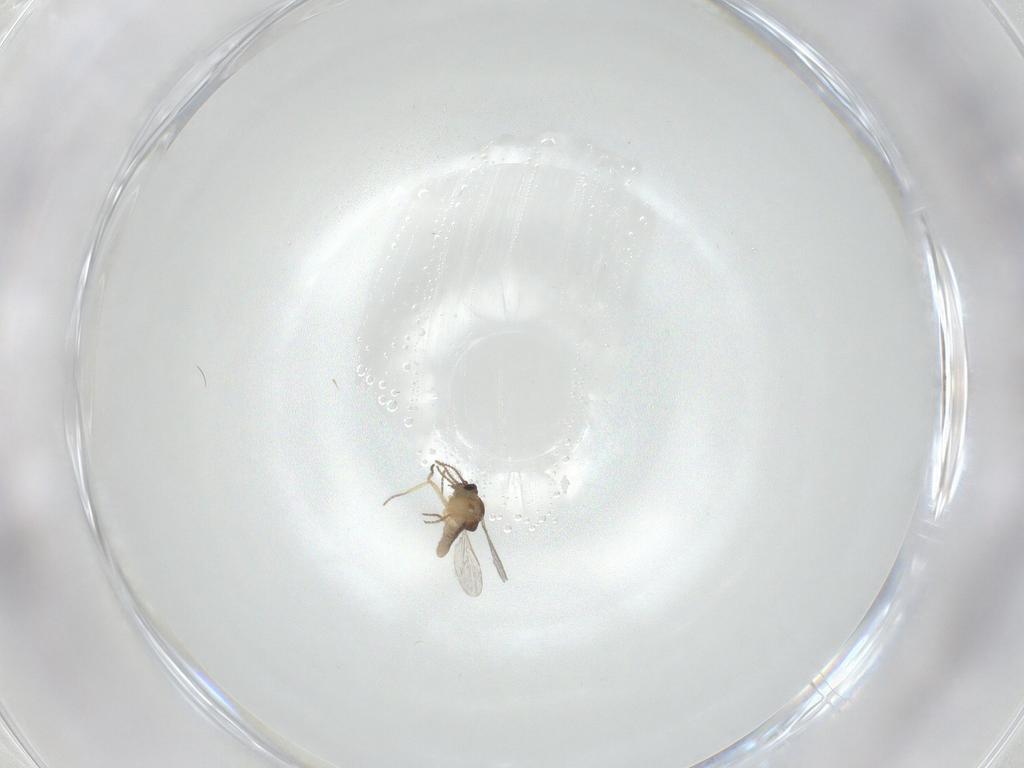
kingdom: Animalia
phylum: Arthropoda
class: Insecta
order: Diptera
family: Ceratopogonidae
